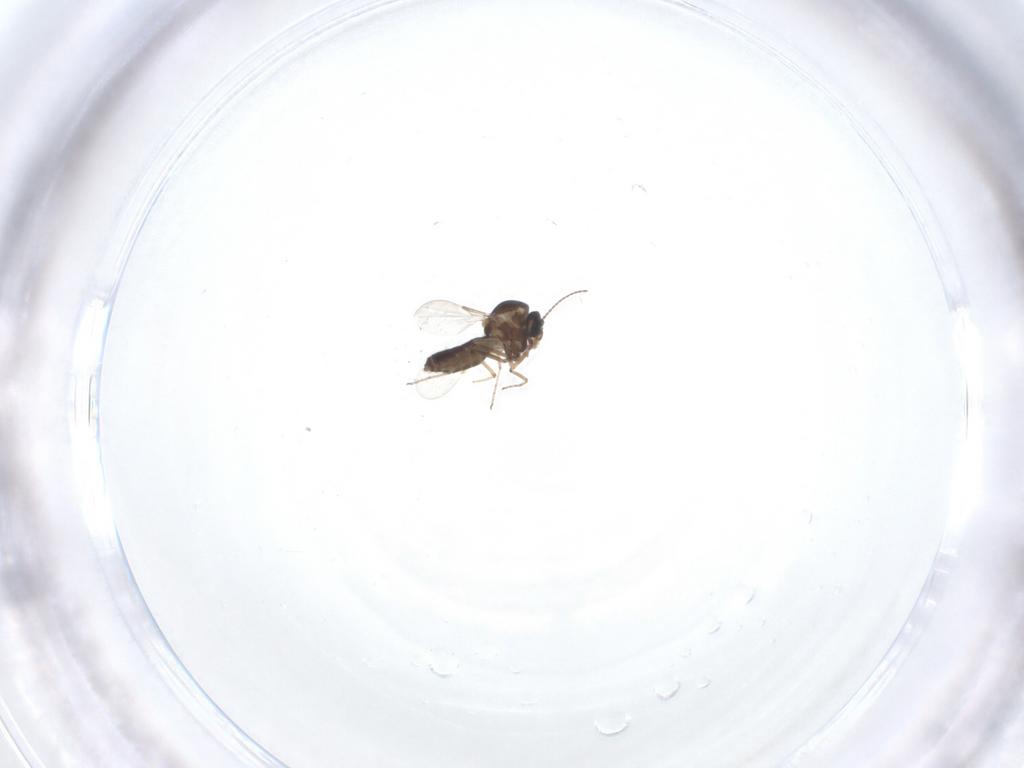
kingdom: Animalia
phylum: Arthropoda
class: Insecta
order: Diptera
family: Ceratopogonidae
